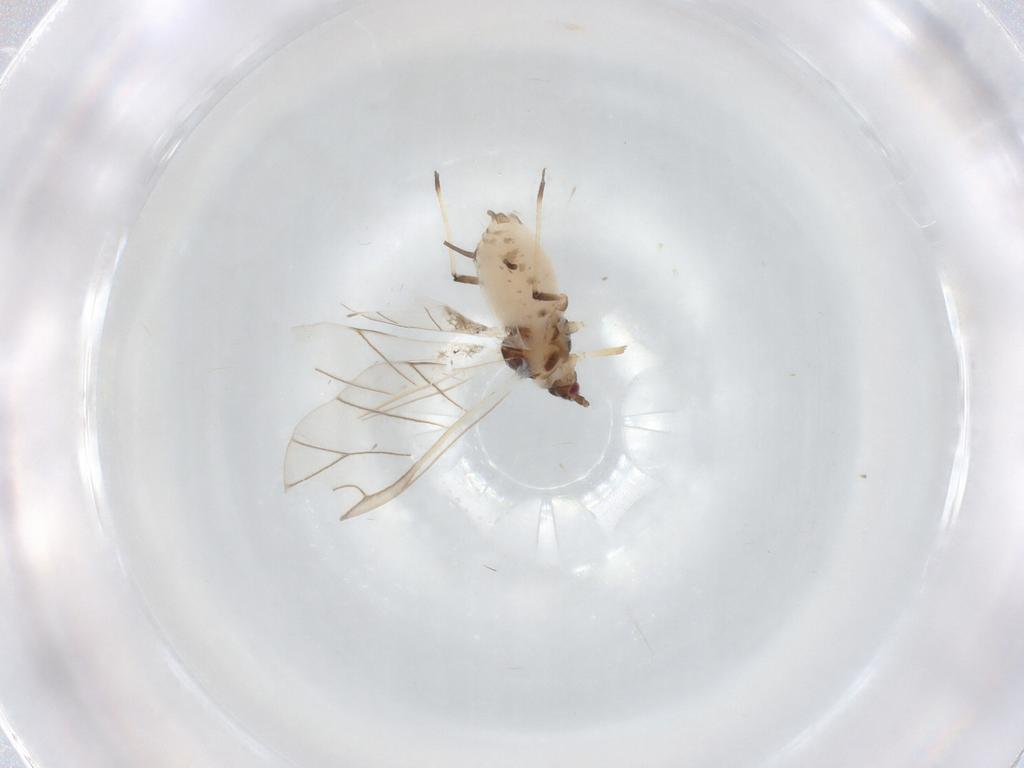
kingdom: Animalia
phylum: Arthropoda
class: Insecta
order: Hemiptera
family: Aphididae
